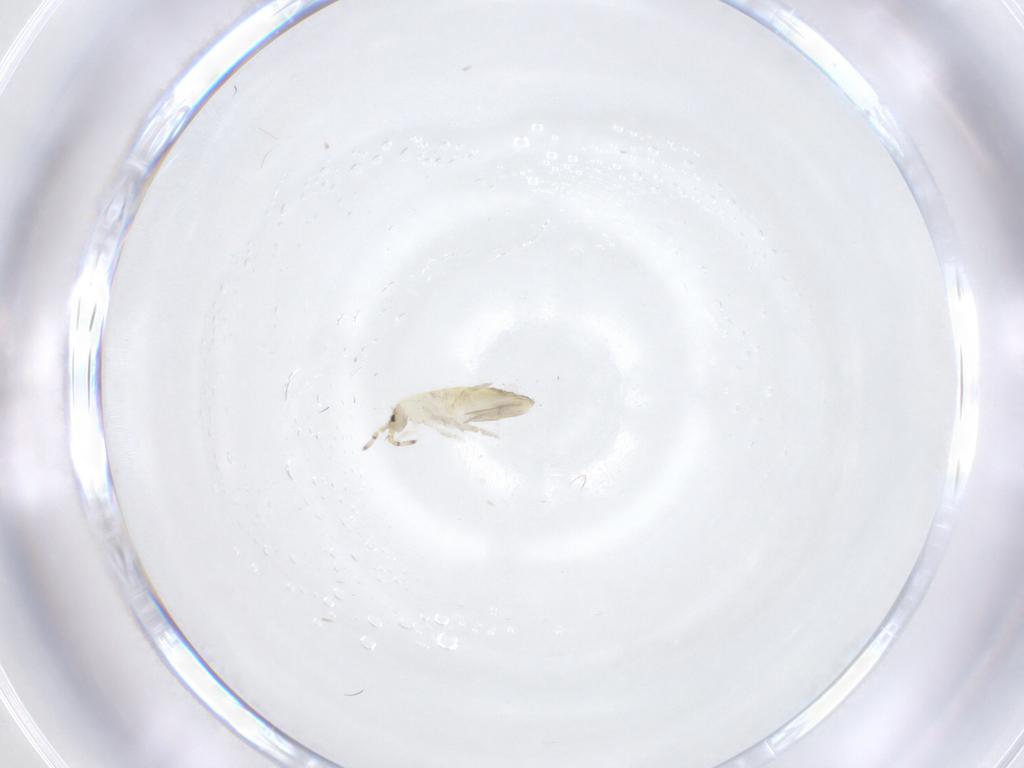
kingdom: Animalia
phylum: Arthropoda
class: Collembola
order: Entomobryomorpha
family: Entomobryidae
